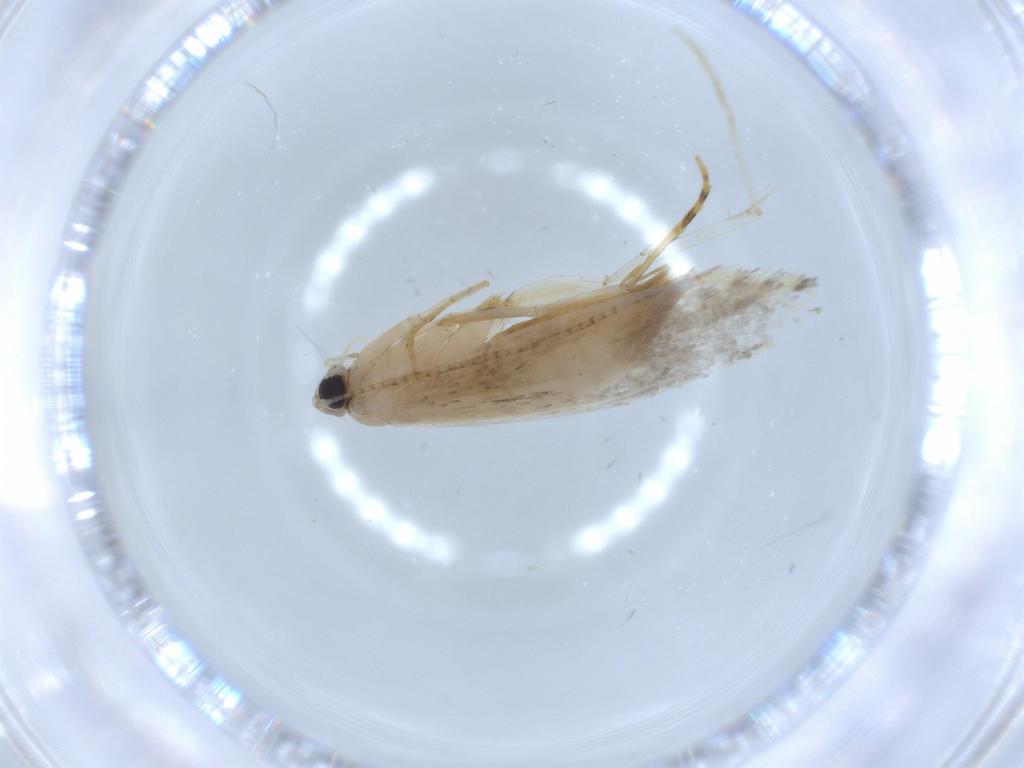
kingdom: Animalia
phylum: Arthropoda
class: Insecta
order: Lepidoptera
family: Tineidae
